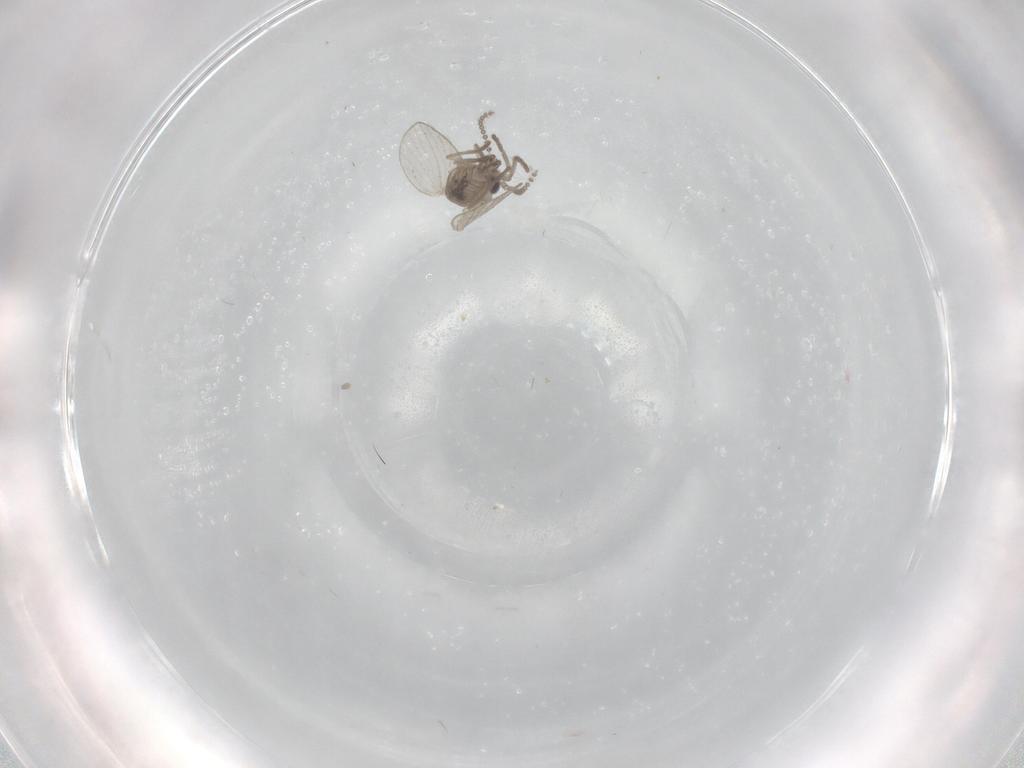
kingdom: Animalia
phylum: Arthropoda
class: Insecta
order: Diptera
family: Psychodidae
